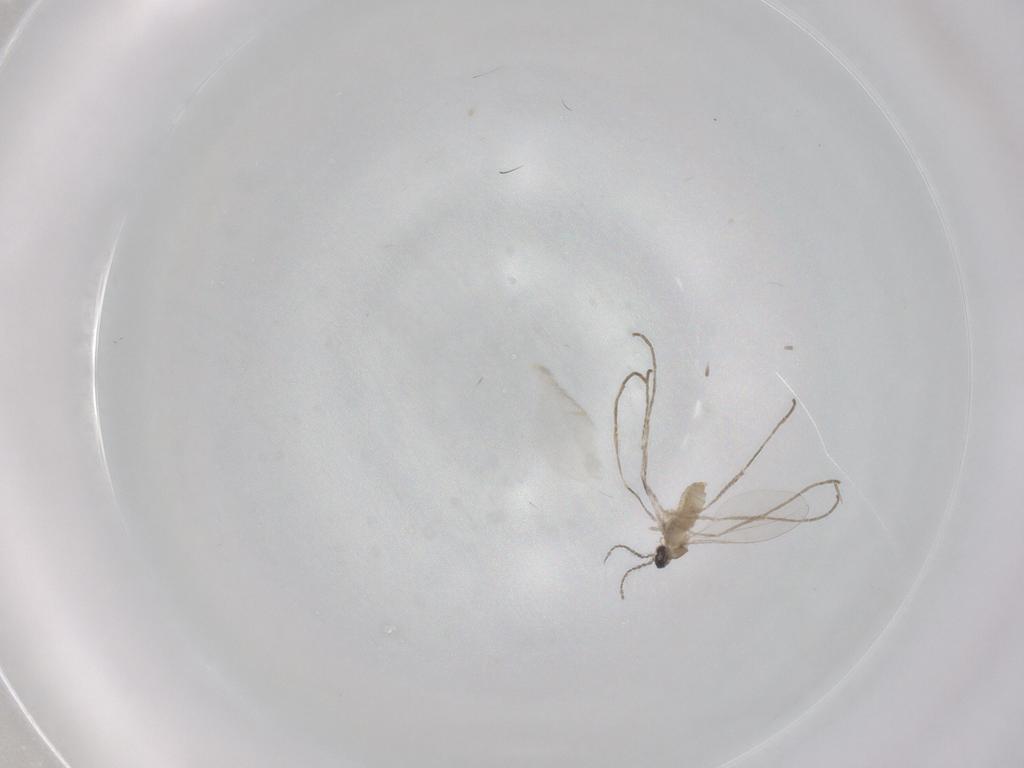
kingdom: Animalia
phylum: Arthropoda
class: Insecta
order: Diptera
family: Cecidomyiidae
